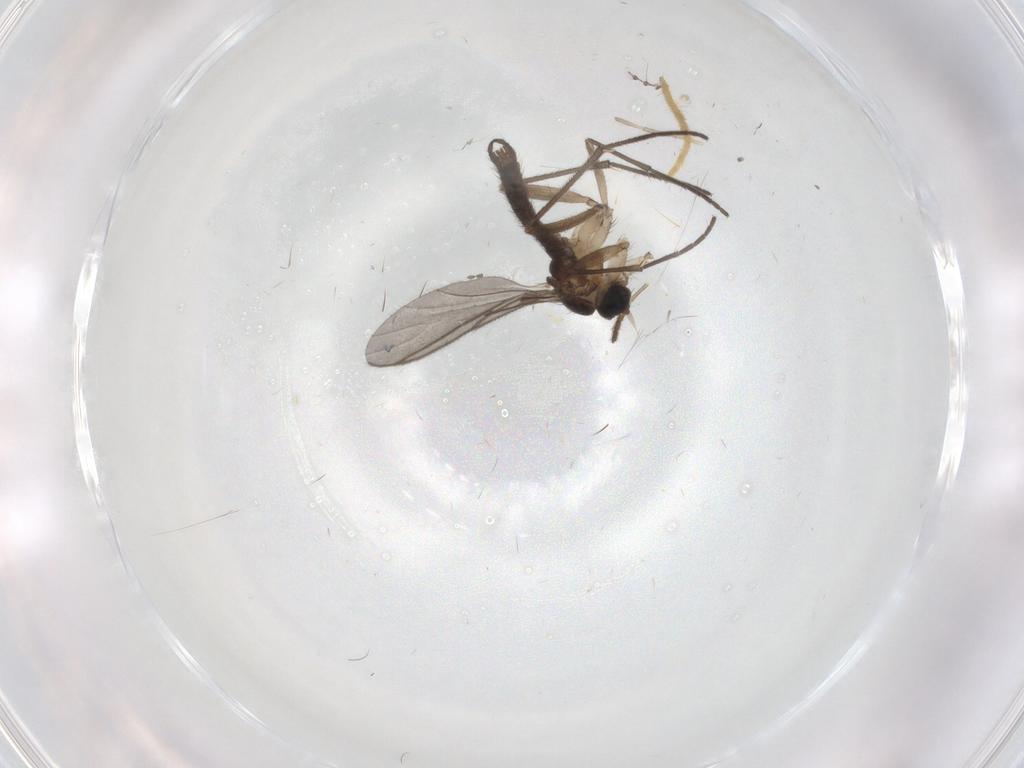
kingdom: Animalia
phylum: Arthropoda
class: Insecta
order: Diptera
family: Sciaridae
